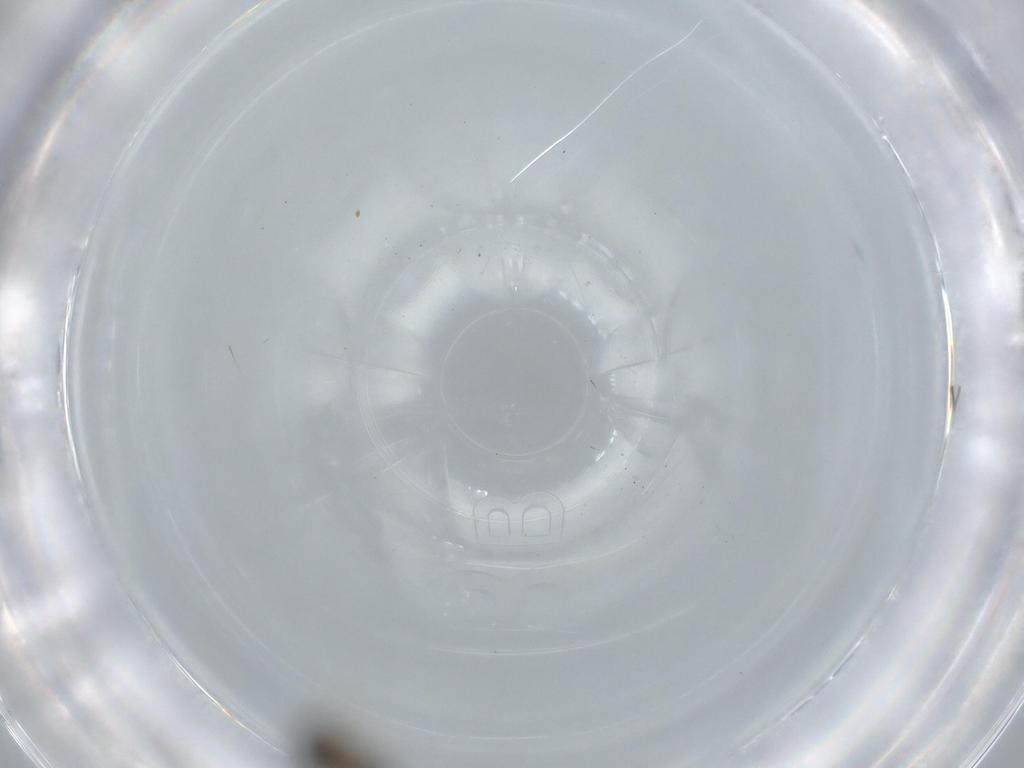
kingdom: Animalia
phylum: Arthropoda
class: Insecta
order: Hymenoptera
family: Platygastridae
